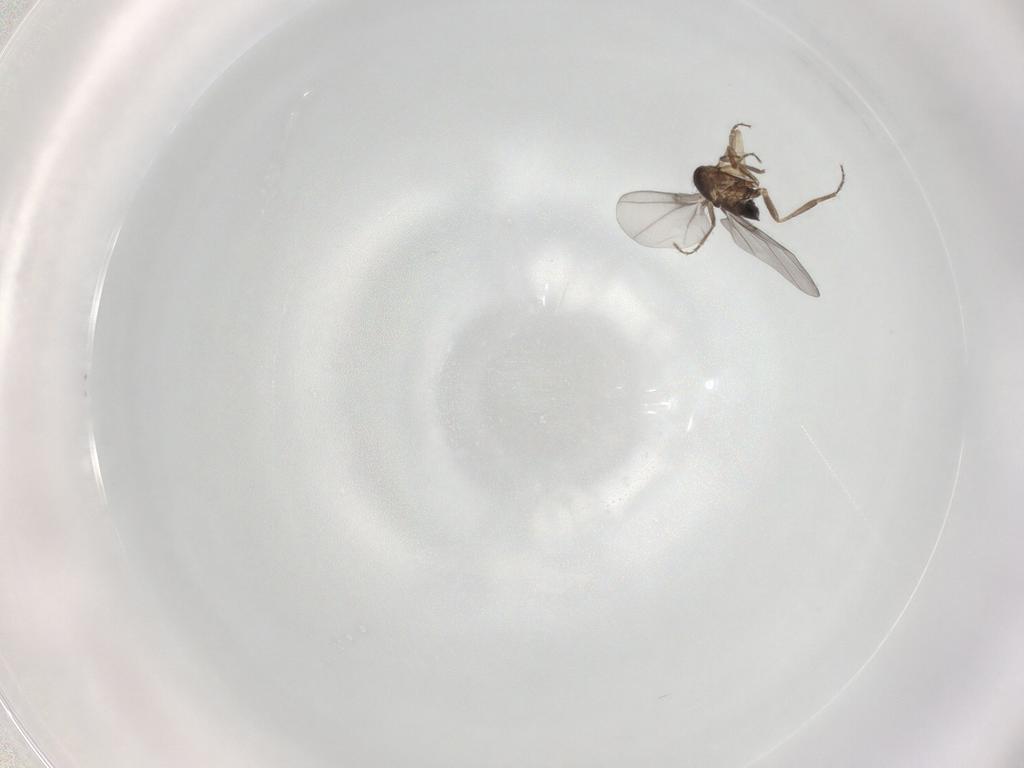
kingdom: Animalia
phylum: Arthropoda
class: Insecta
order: Diptera
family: Phoridae
